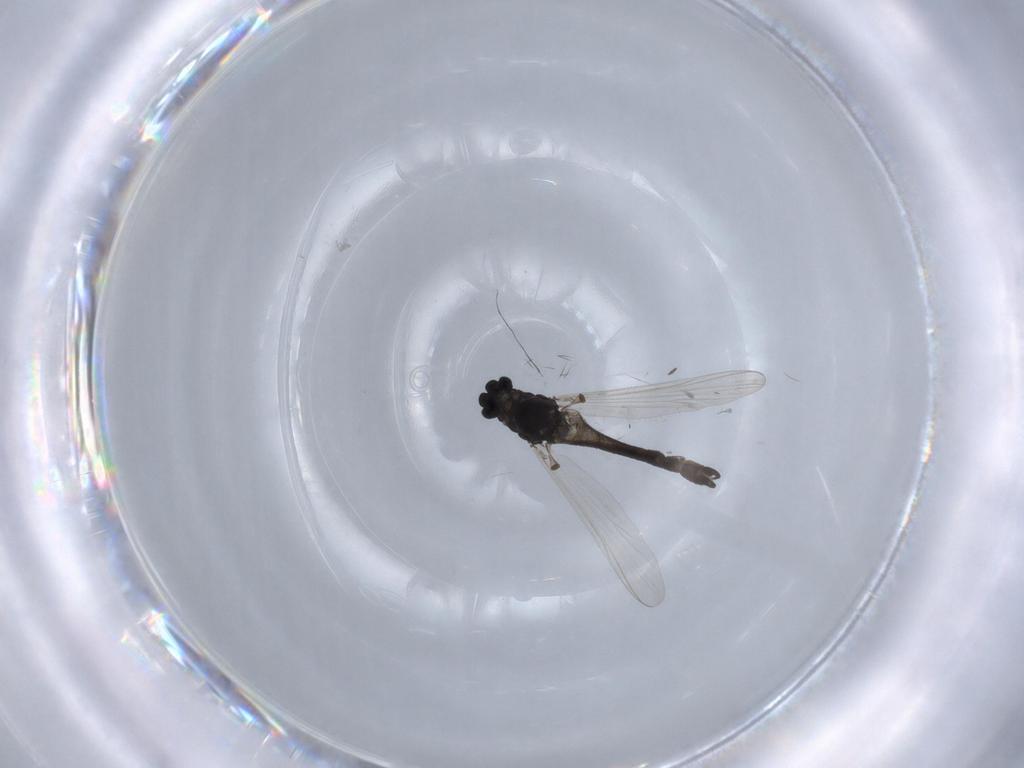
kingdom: Animalia
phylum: Arthropoda
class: Insecta
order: Diptera
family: Chironomidae
